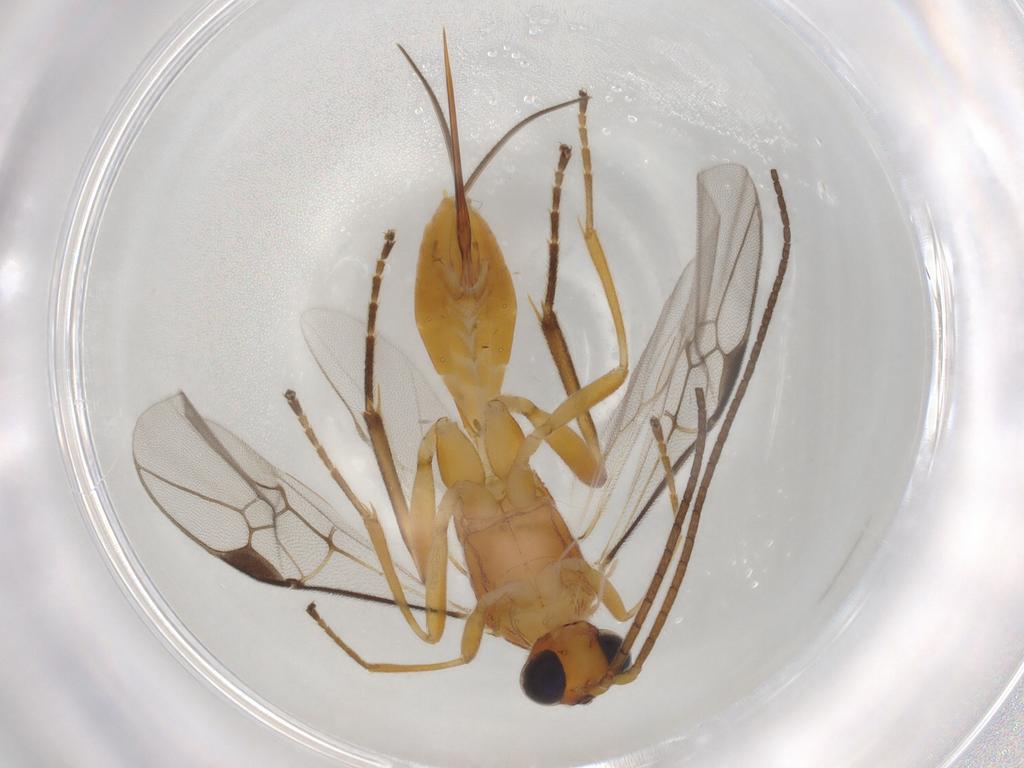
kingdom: Animalia
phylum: Arthropoda
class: Insecta
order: Hymenoptera
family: Braconidae
